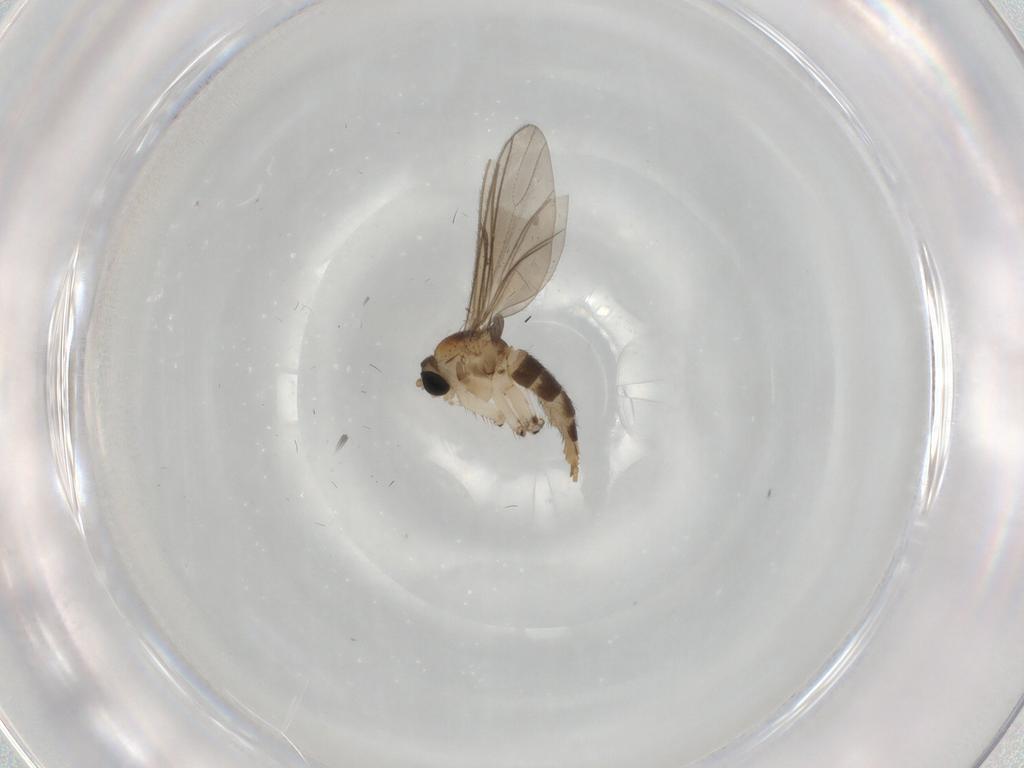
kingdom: Animalia
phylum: Arthropoda
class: Insecta
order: Diptera
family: Sciaridae
